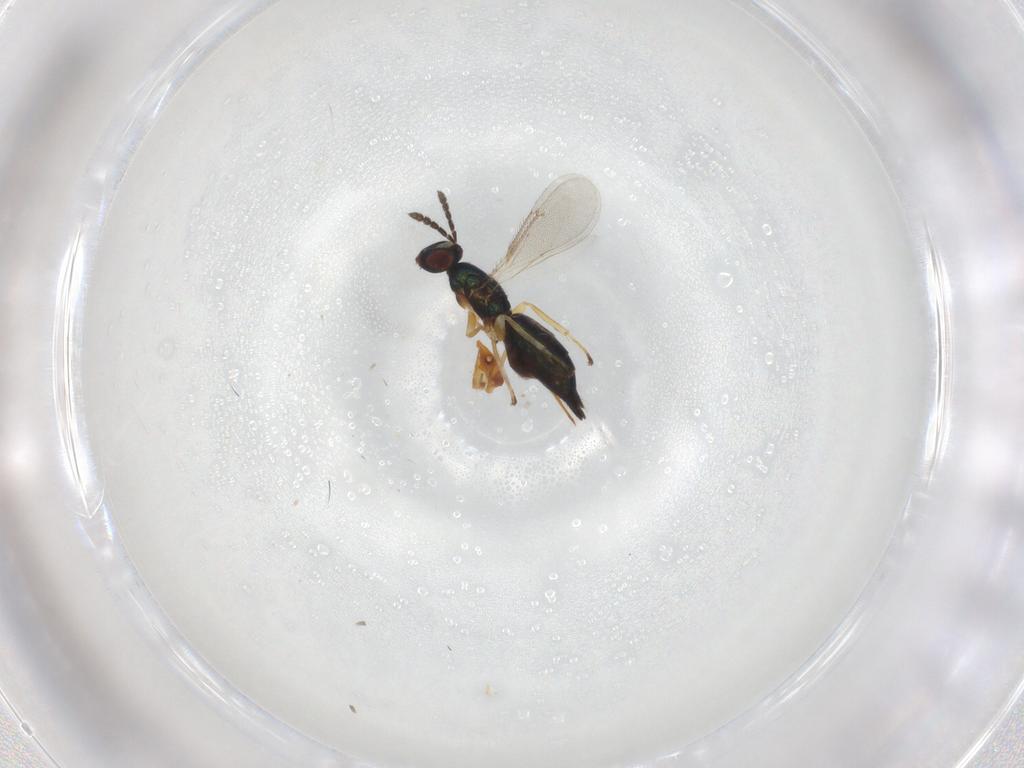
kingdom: Animalia
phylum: Arthropoda
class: Insecta
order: Hymenoptera
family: Eulophidae
